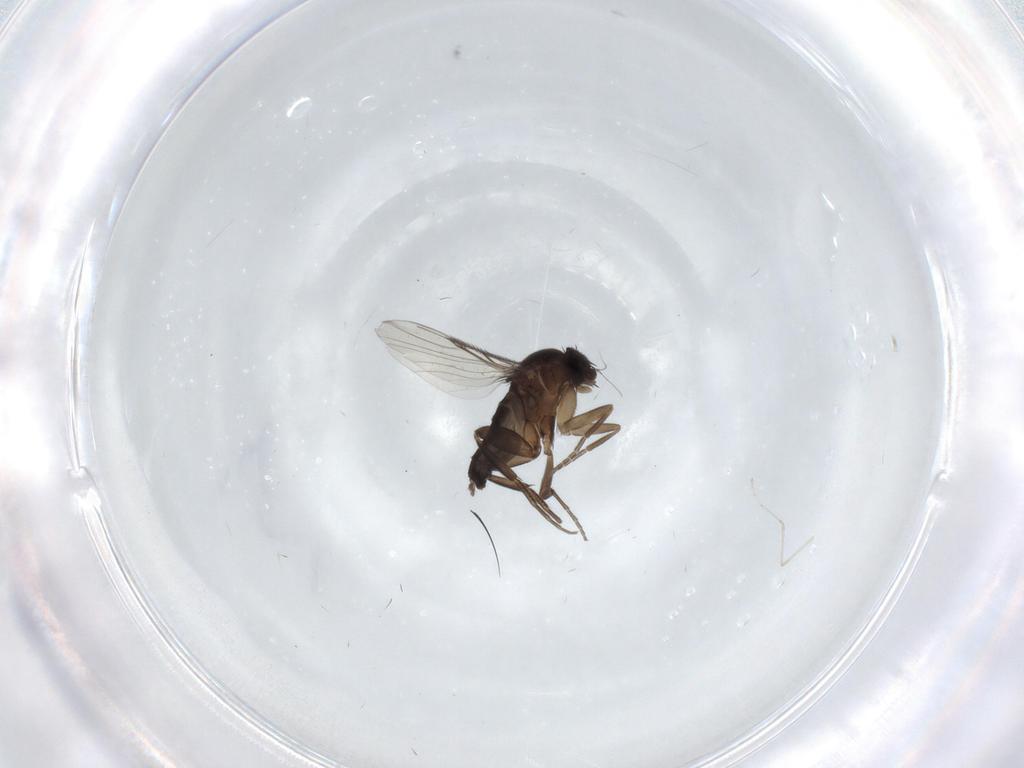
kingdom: Animalia
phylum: Arthropoda
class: Insecta
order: Diptera
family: Phoridae
